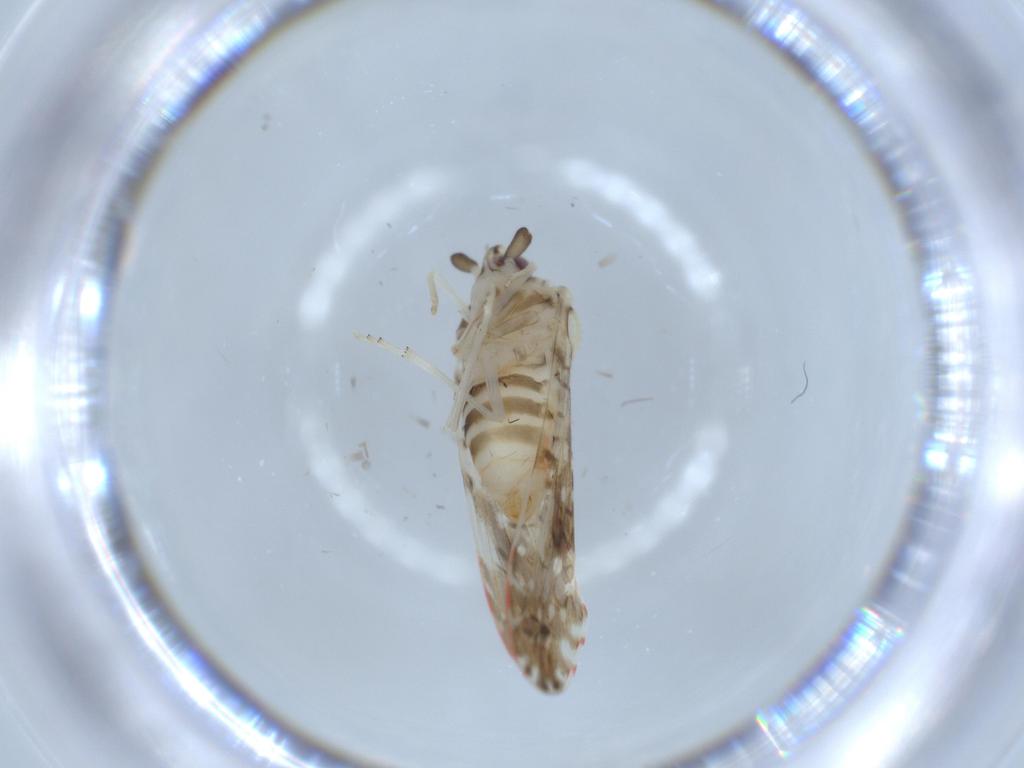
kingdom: Animalia
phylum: Arthropoda
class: Insecta
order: Hemiptera
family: Derbidae
